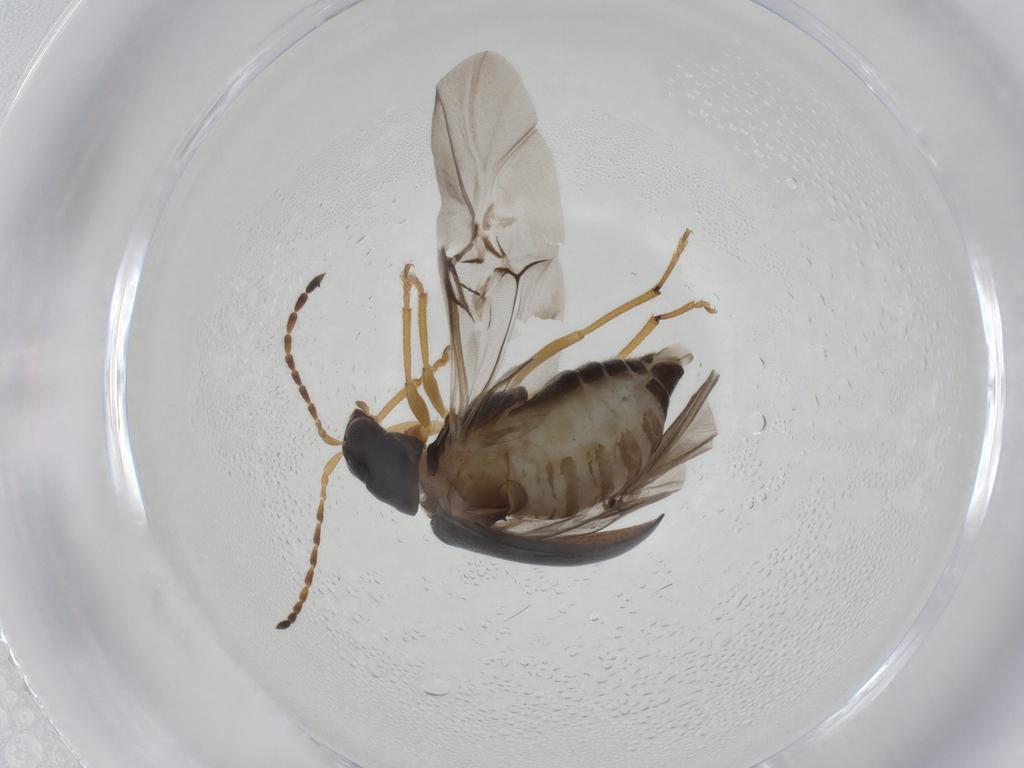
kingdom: Animalia
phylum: Arthropoda
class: Insecta
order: Coleoptera
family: Chrysomelidae
